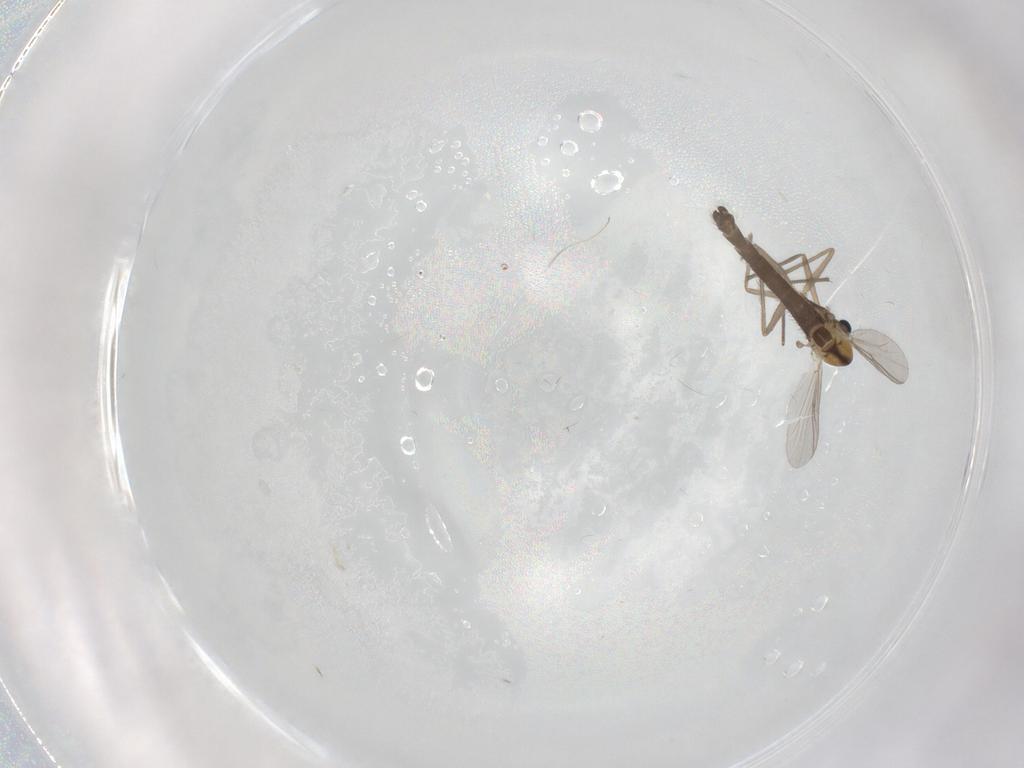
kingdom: Animalia
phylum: Arthropoda
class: Insecta
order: Diptera
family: Chironomidae
